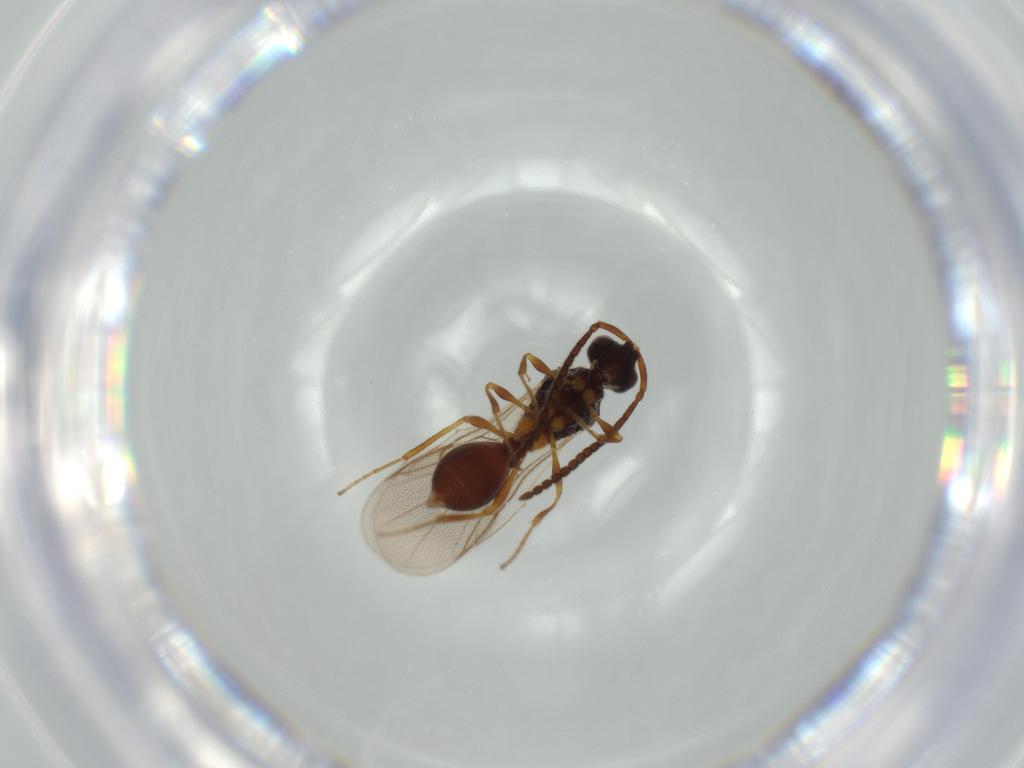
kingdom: Animalia
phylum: Arthropoda
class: Insecta
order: Hymenoptera
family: Diapriidae
